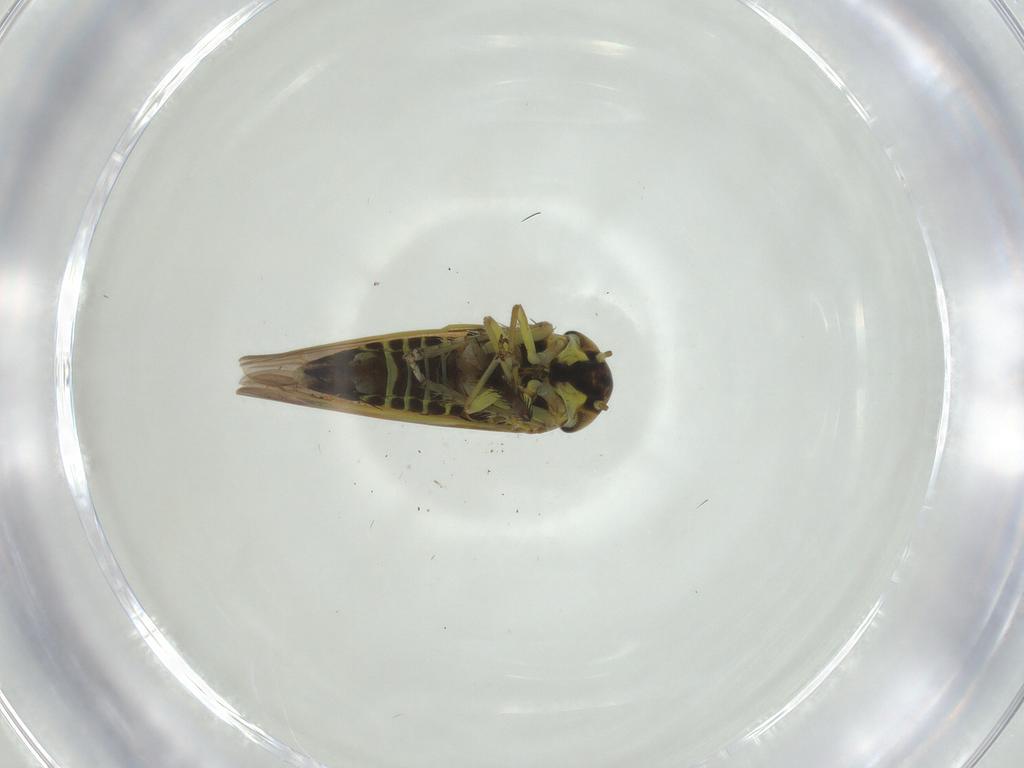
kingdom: Animalia
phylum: Arthropoda
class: Insecta
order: Hemiptera
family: Cicadellidae
